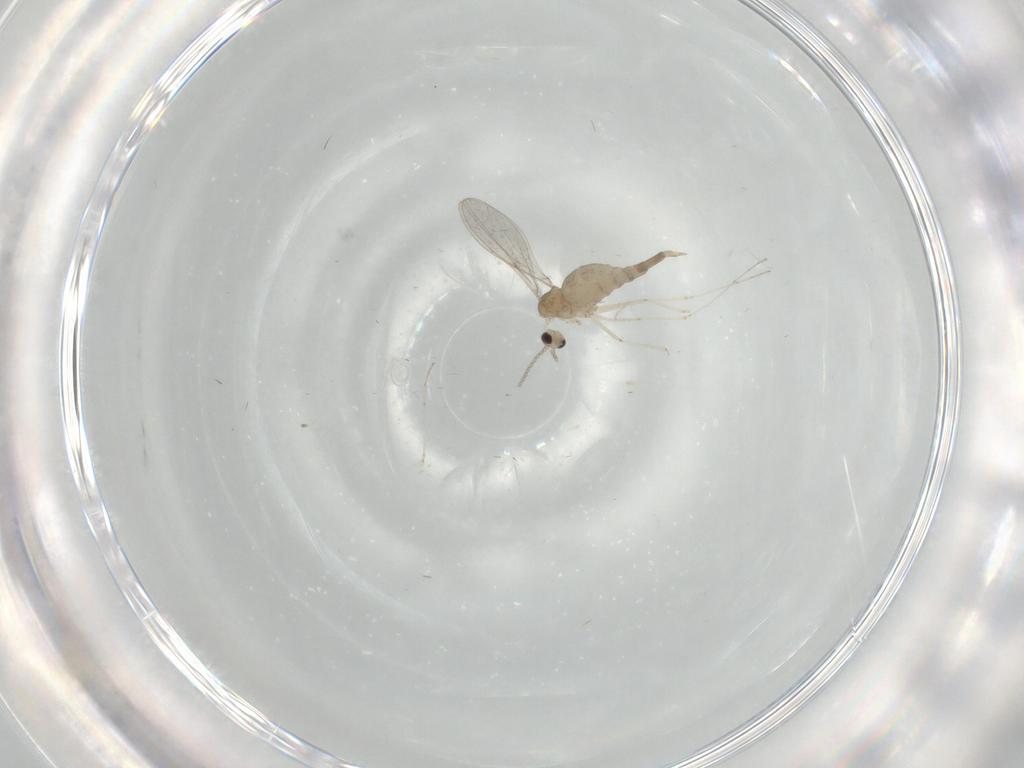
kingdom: Animalia
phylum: Arthropoda
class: Insecta
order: Diptera
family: Cecidomyiidae
